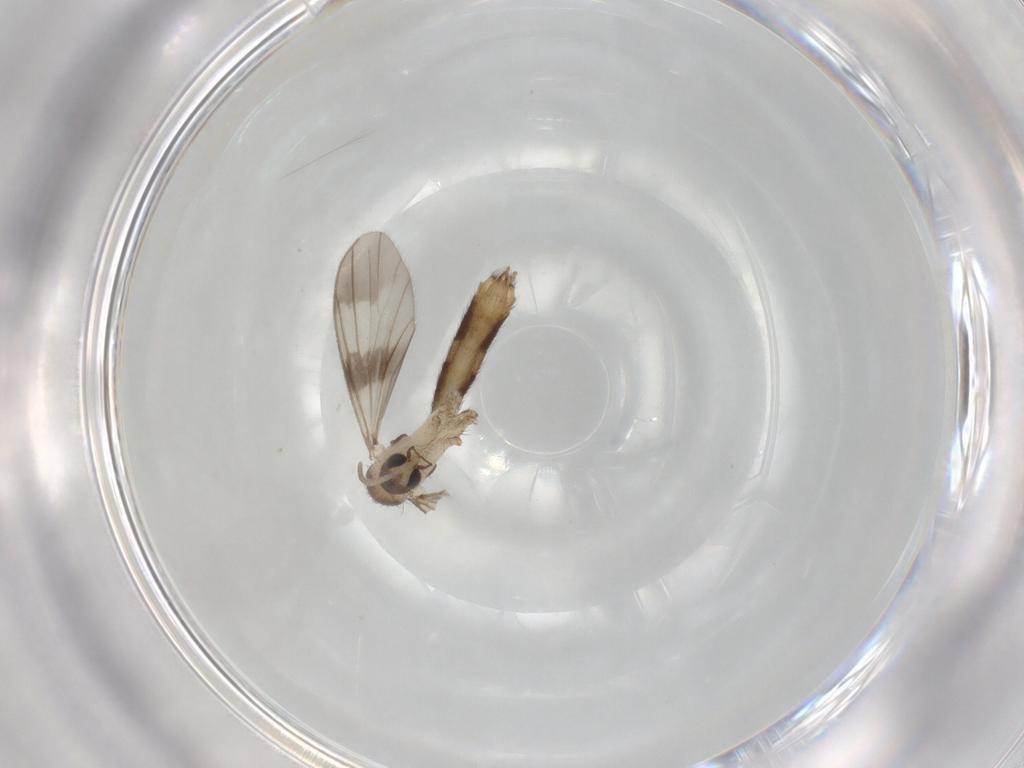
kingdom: Animalia
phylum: Arthropoda
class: Insecta
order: Diptera
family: Mycetophilidae
